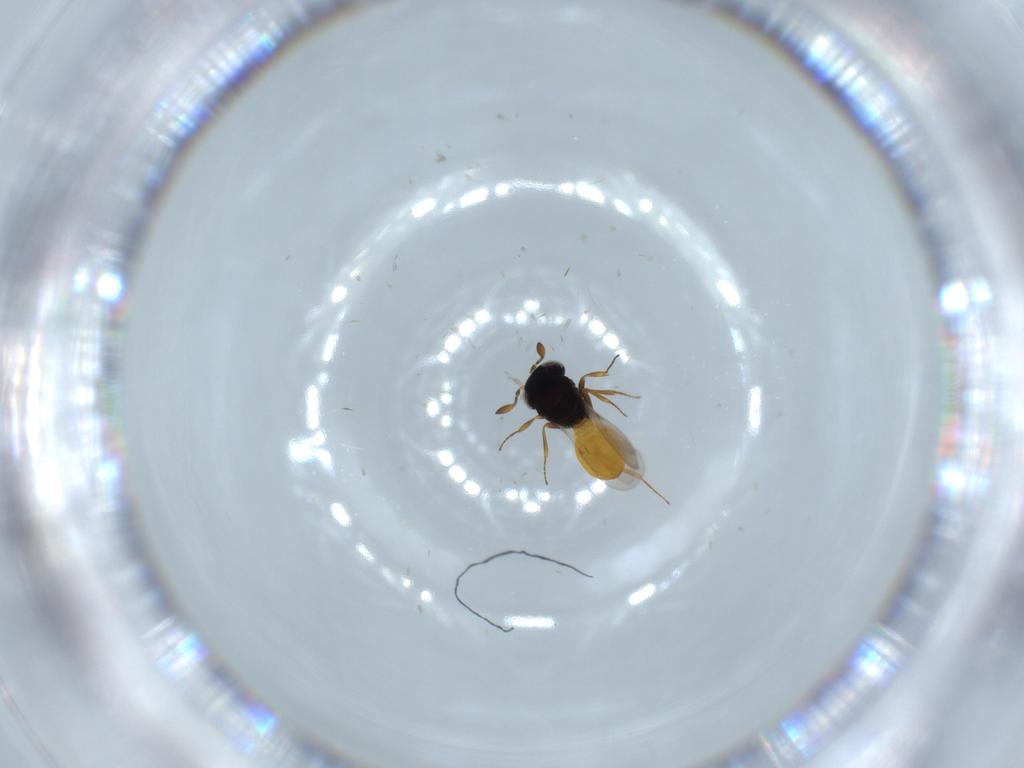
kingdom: Animalia
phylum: Arthropoda
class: Insecta
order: Hymenoptera
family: Scelionidae
